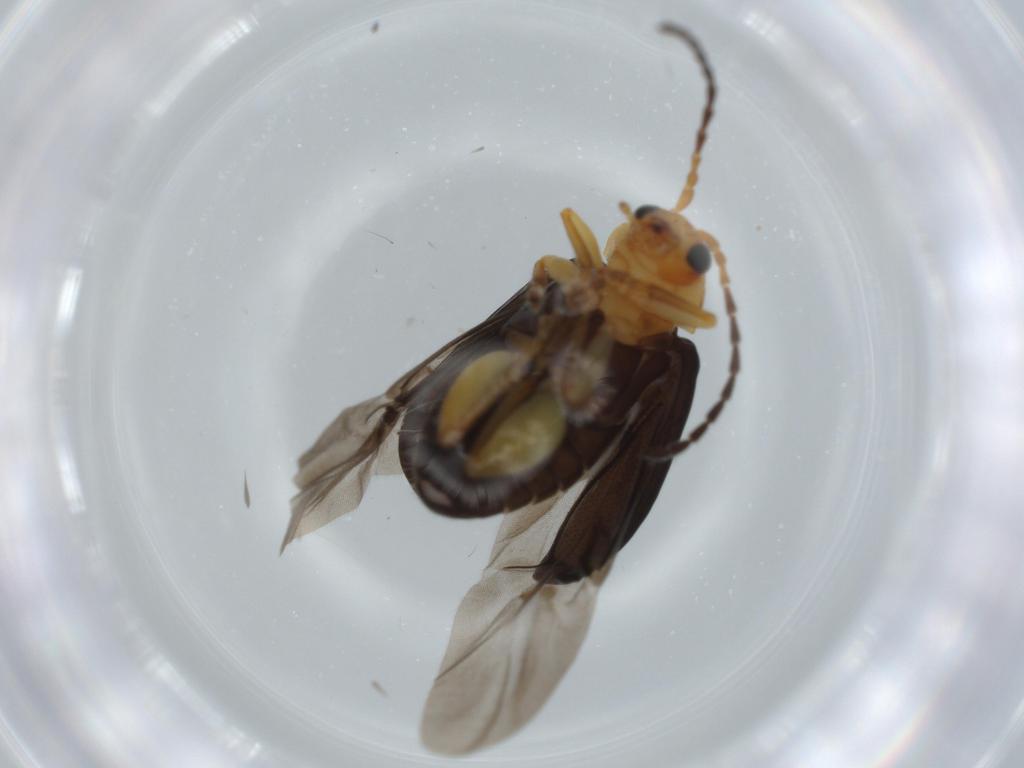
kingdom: Animalia
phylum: Arthropoda
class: Insecta
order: Coleoptera
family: Chrysomelidae
